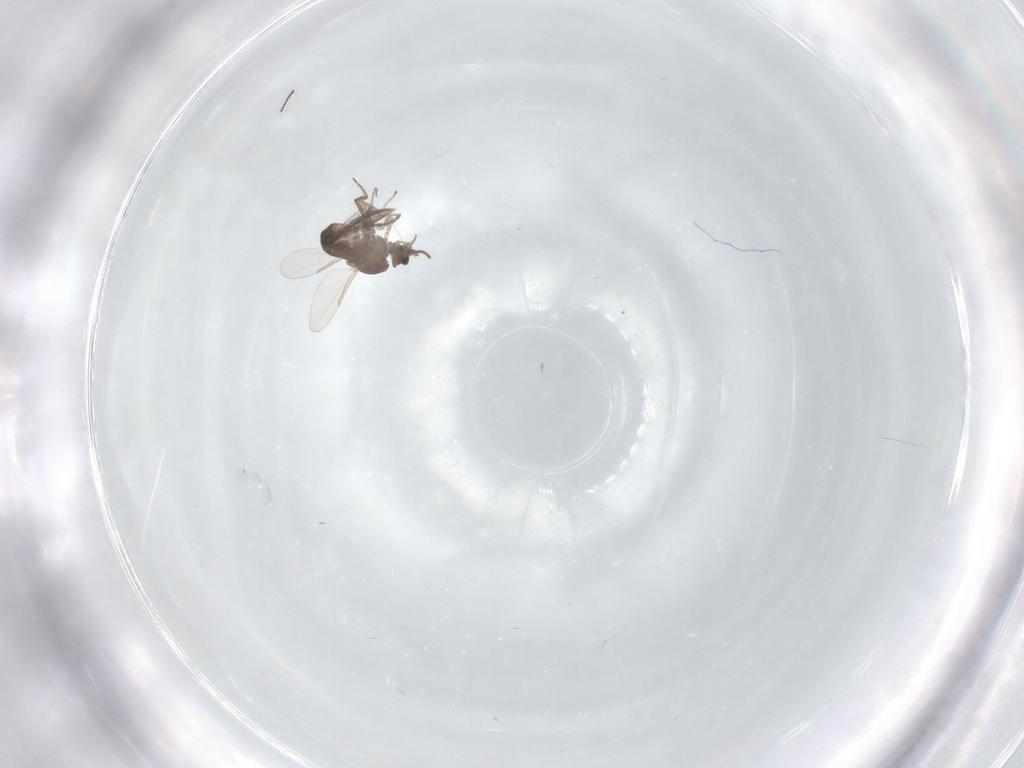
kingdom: Animalia
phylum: Arthropoda
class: Insecta
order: Diptera
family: Ceratopogonidae
